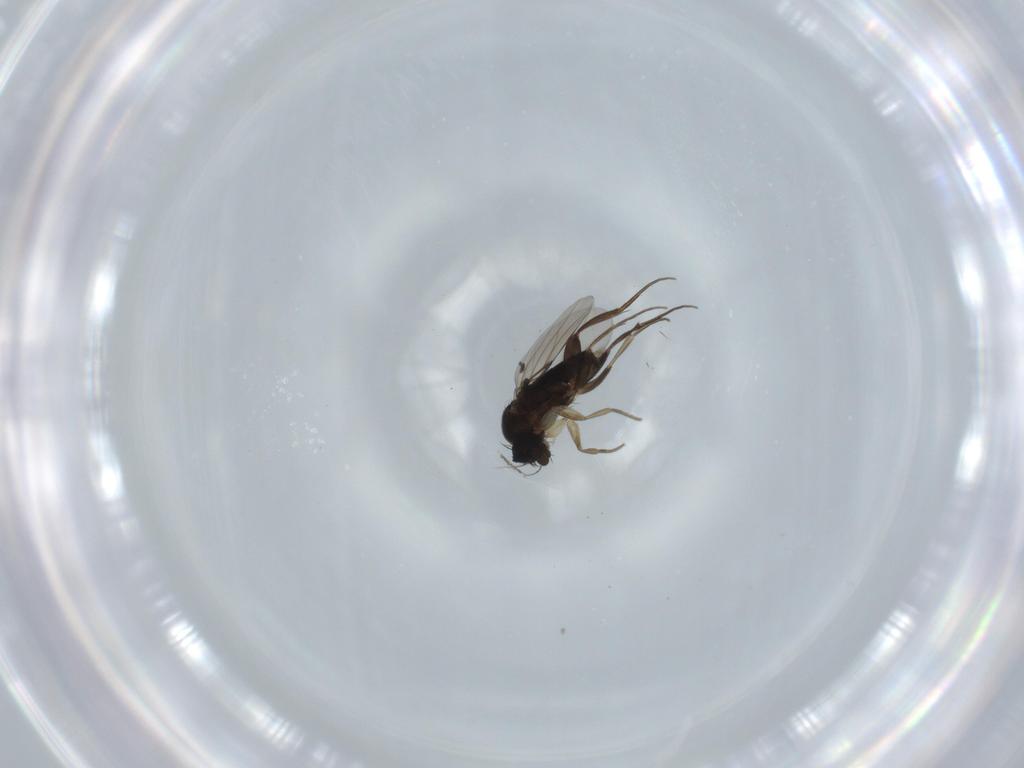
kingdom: Animalia
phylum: Arthropoda
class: Insecta
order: Diptera
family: Phoridae
